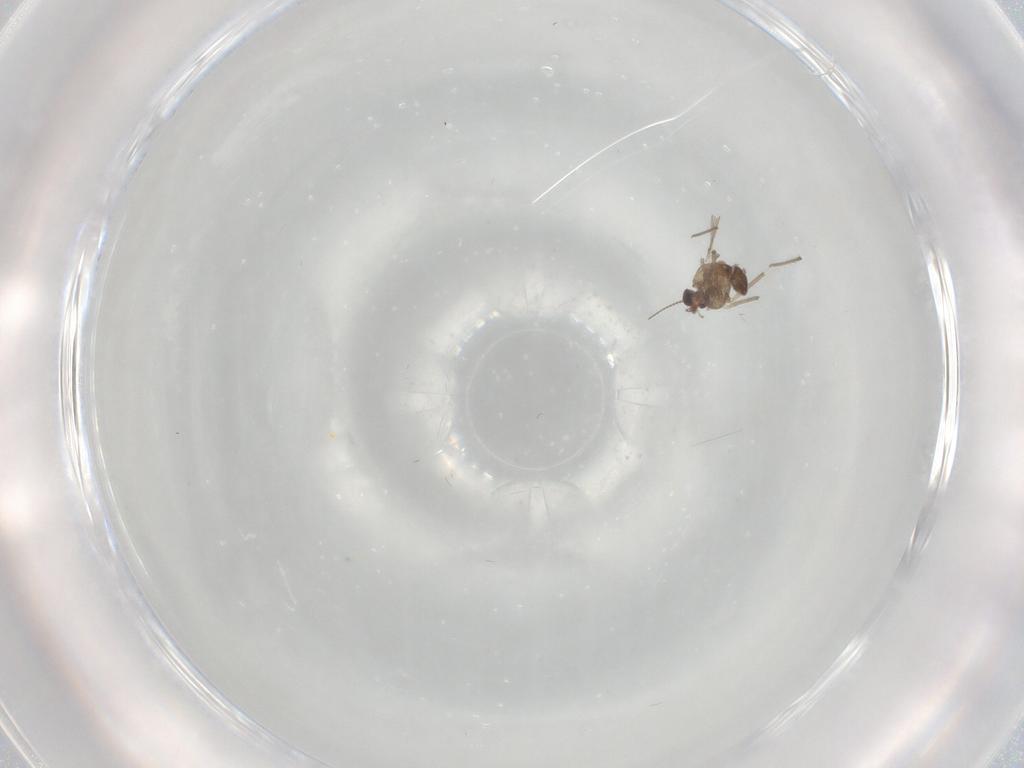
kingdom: Animalia
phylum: Arthropoda
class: Insecta
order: Diptera
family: Chironomidae
